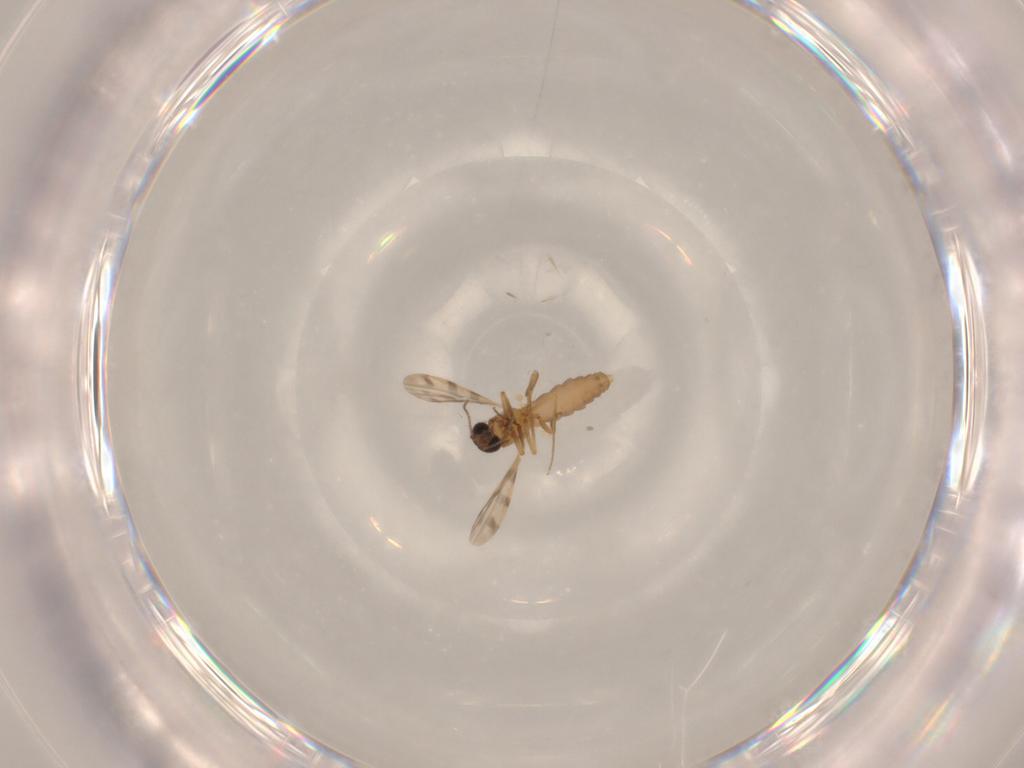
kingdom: Animalia
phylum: Arthropoda
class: Insecta
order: Diptera
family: Ceratopogonidae
